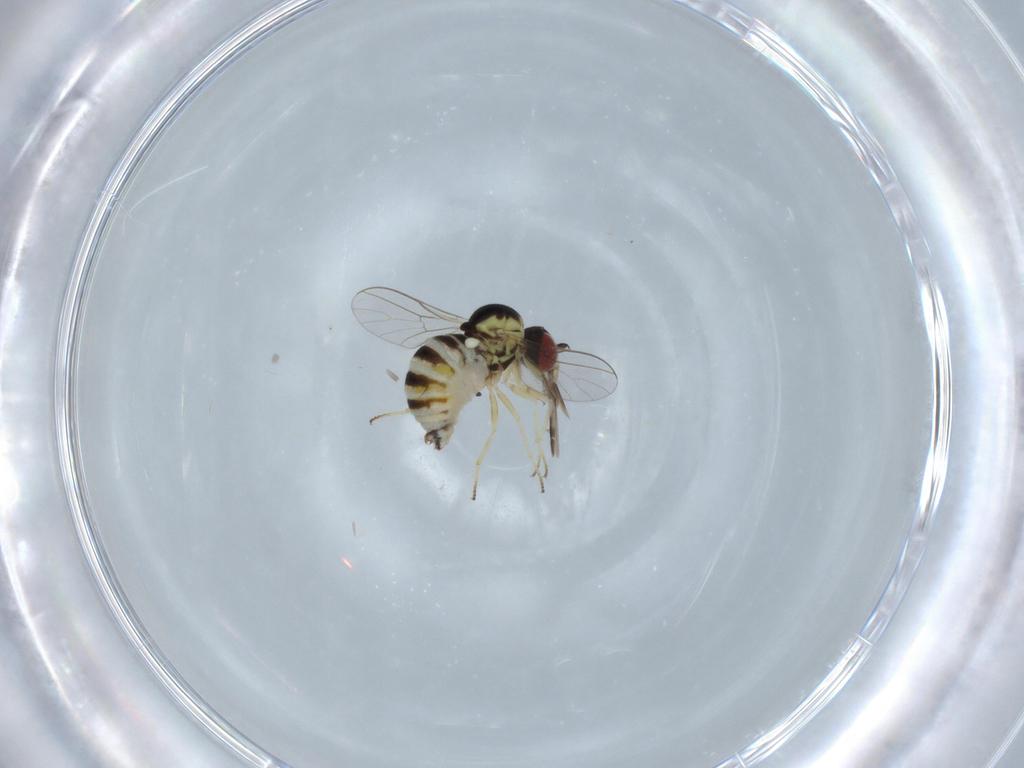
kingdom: Animalia
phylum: Arthropoda
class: Insecta
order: Diptera
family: Bombyliidae
